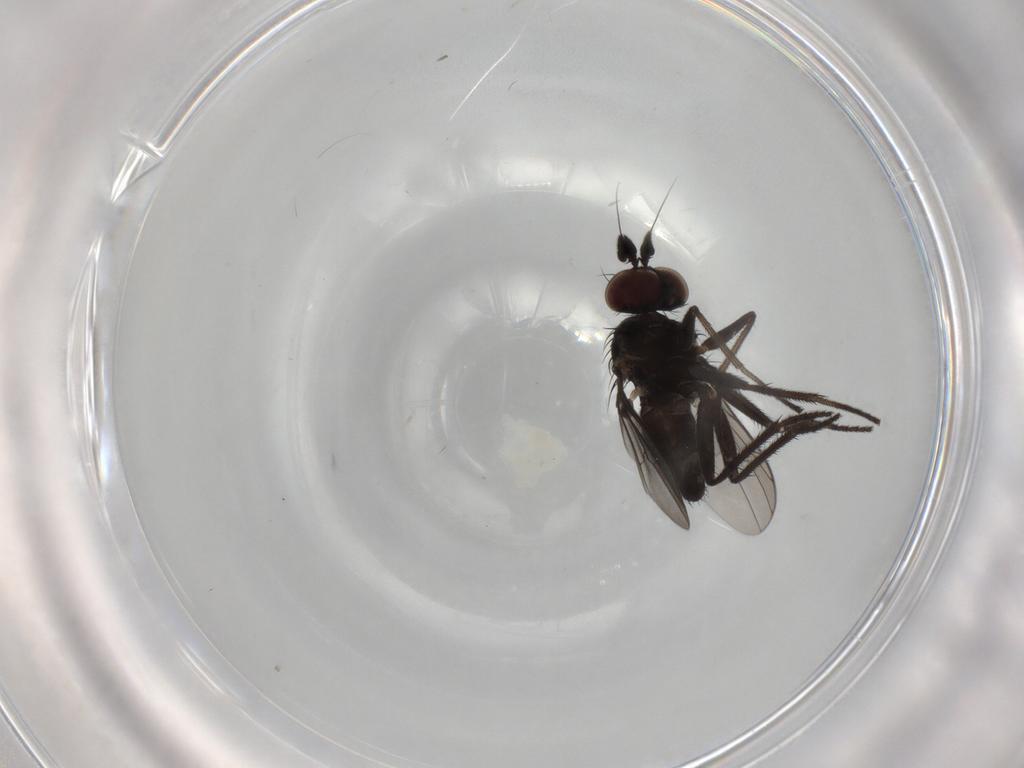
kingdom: Animalia
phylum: Arthropoda
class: Insecta
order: Diptera
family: Dolichopodidae
